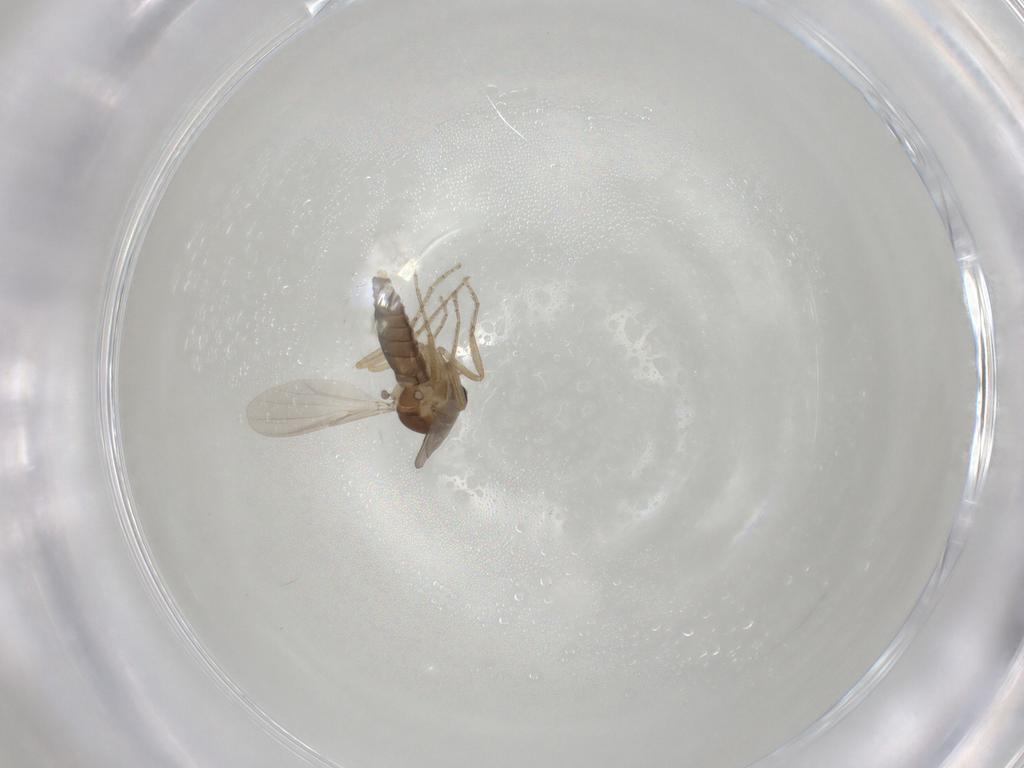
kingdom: Animalia
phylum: Arthropoda
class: Insecta
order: Diptera
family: Ceratopogonidae
